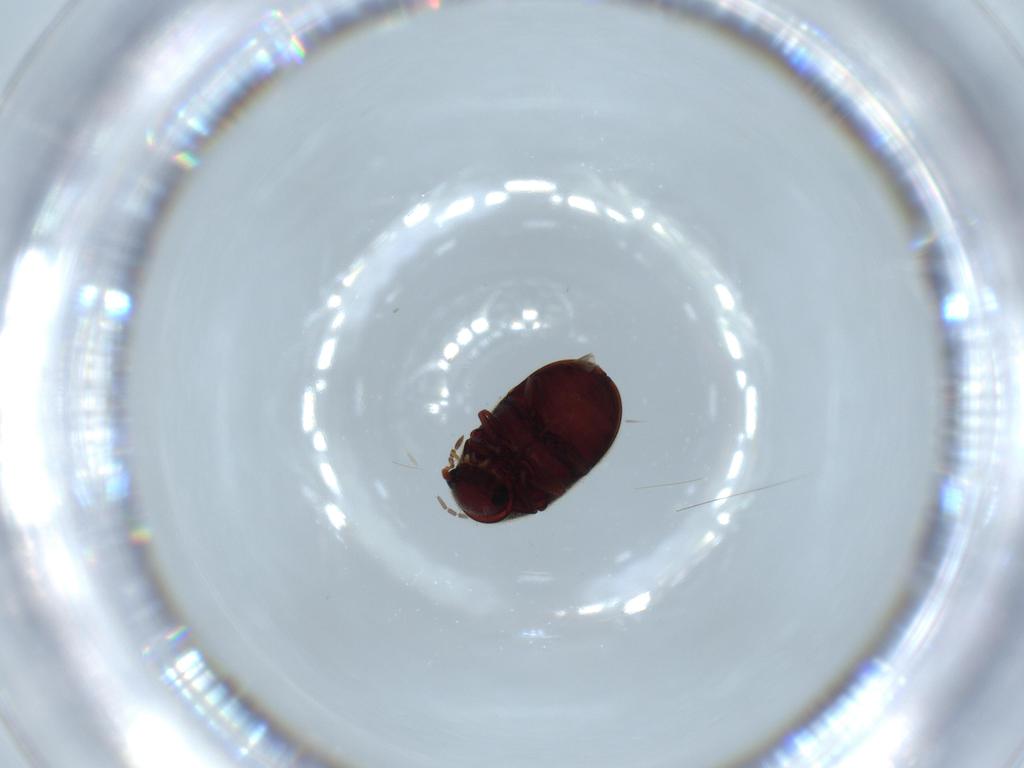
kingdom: Animalia
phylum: Arthropoda
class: Insecta
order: Coleoptera
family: Ptinidae
